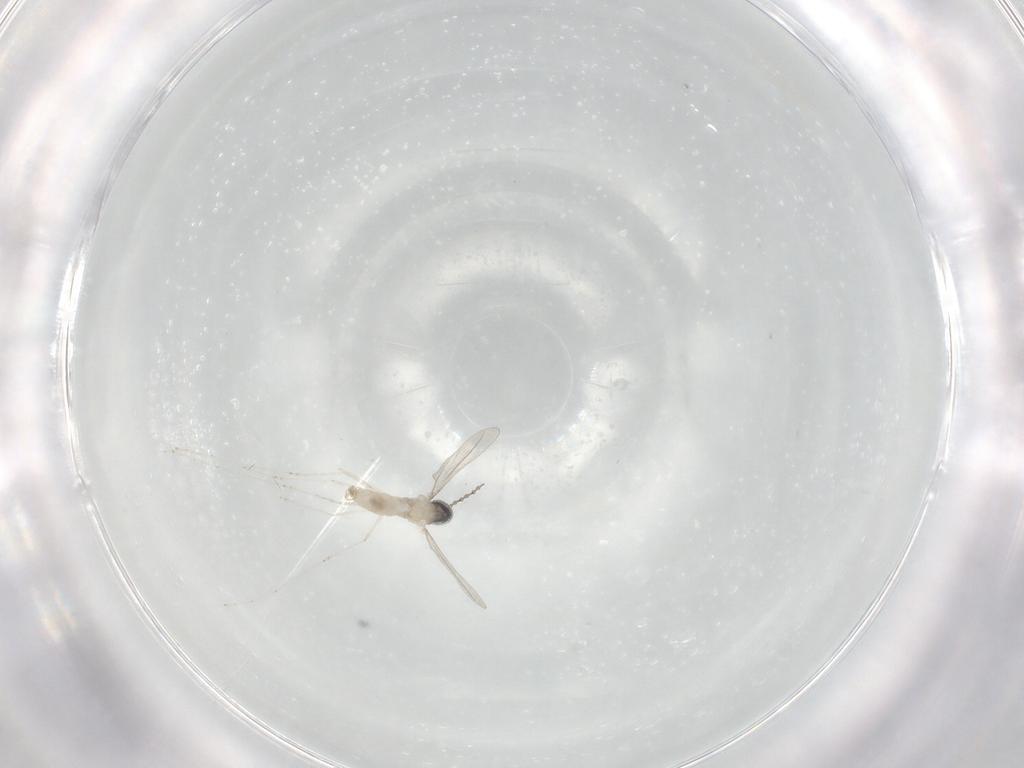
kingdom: Animalia
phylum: Arthropoda
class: Insecta
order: Diptera
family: Cecidomyiidae
